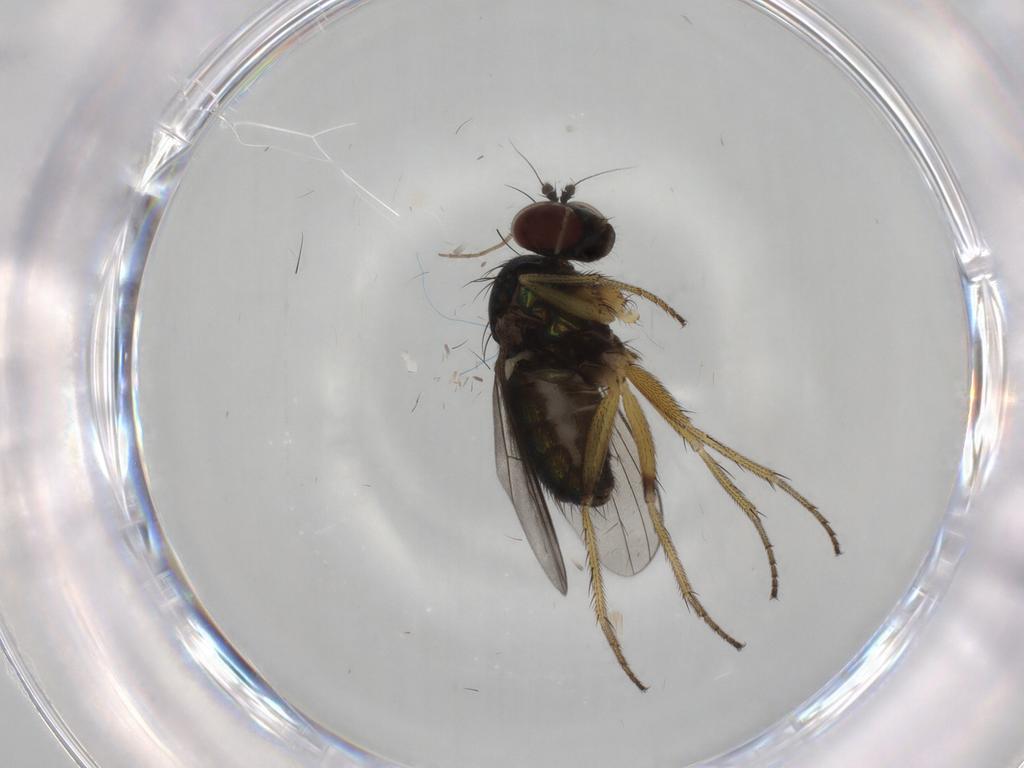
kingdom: Animalia
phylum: Arthropoda
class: Insecta
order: Diptera
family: Dolichopodidae
